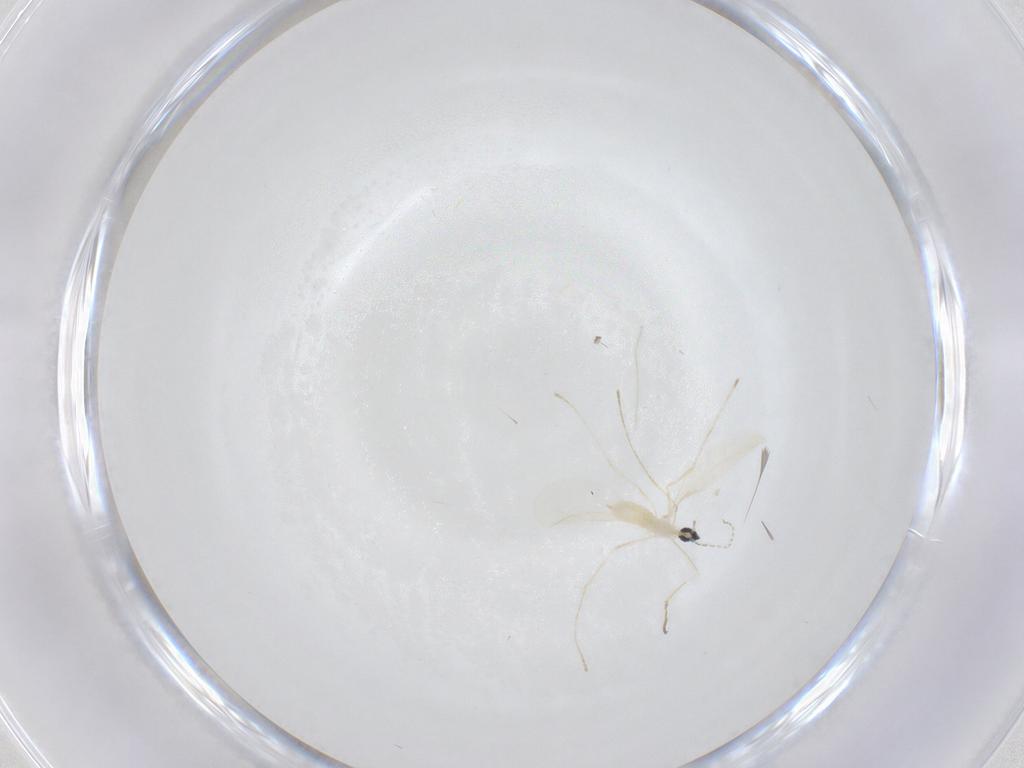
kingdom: Animalia
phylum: Arthropoda
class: Insecta
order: Diptera
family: Cecidomyiidae
